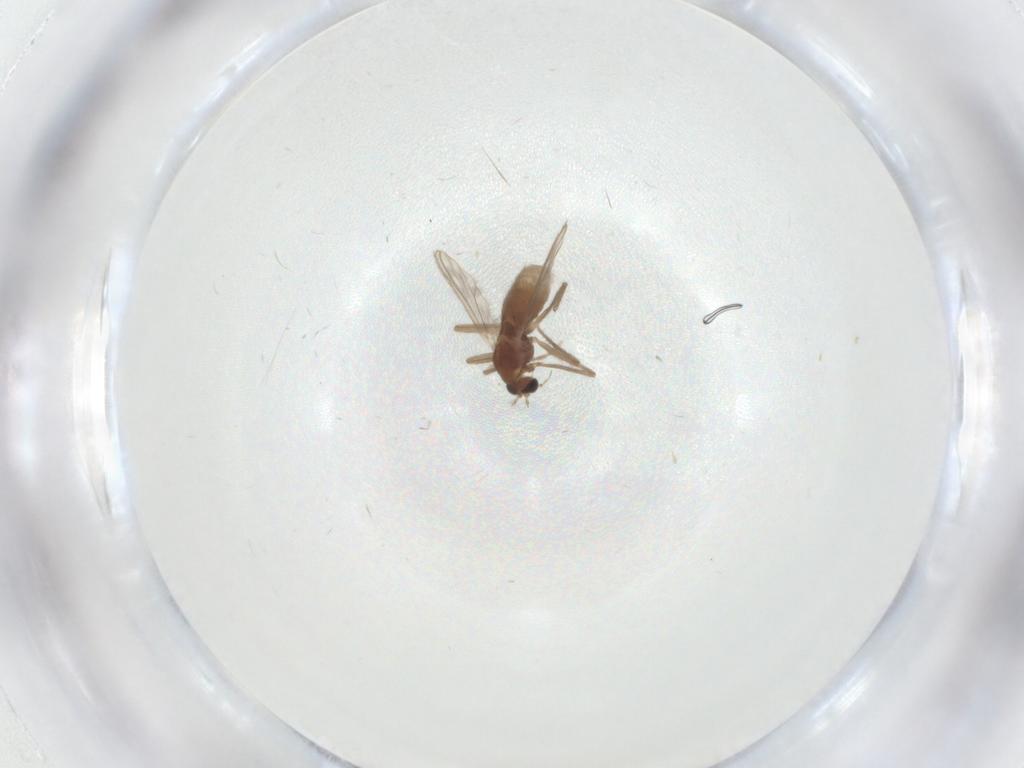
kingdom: Animalia
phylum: Arthropoda
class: Insecta
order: Diptera
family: Chironomidae
